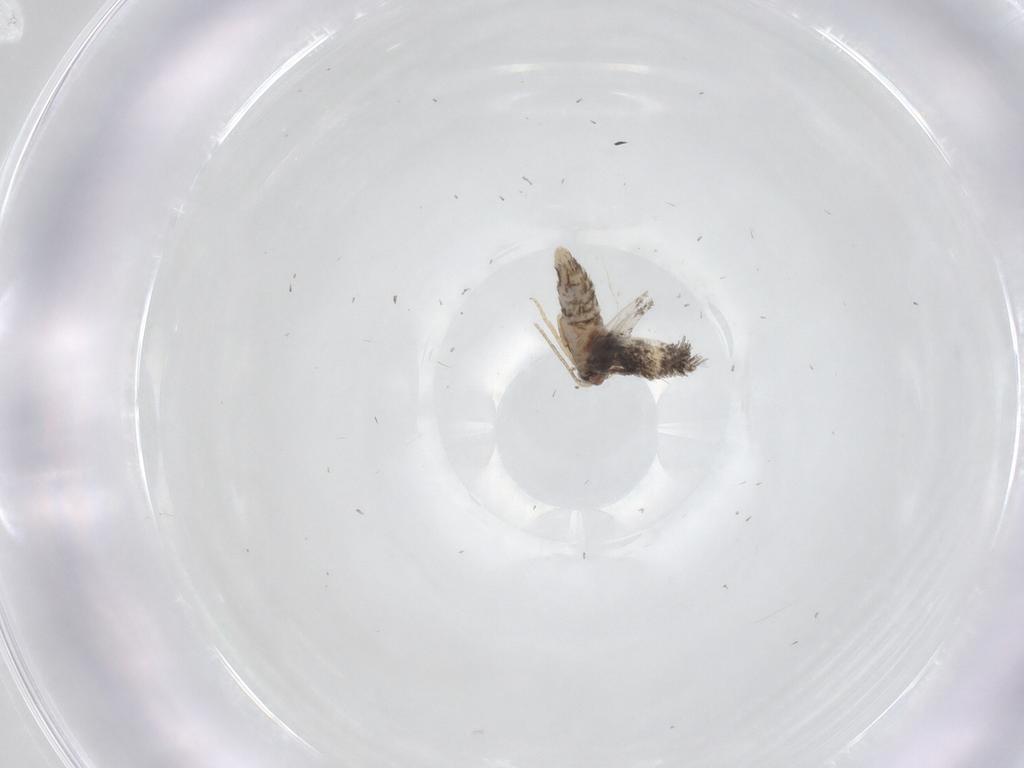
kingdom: Animalia
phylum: Arthropoda
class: Insecta
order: Lepidoptera
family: Nepticulidae
